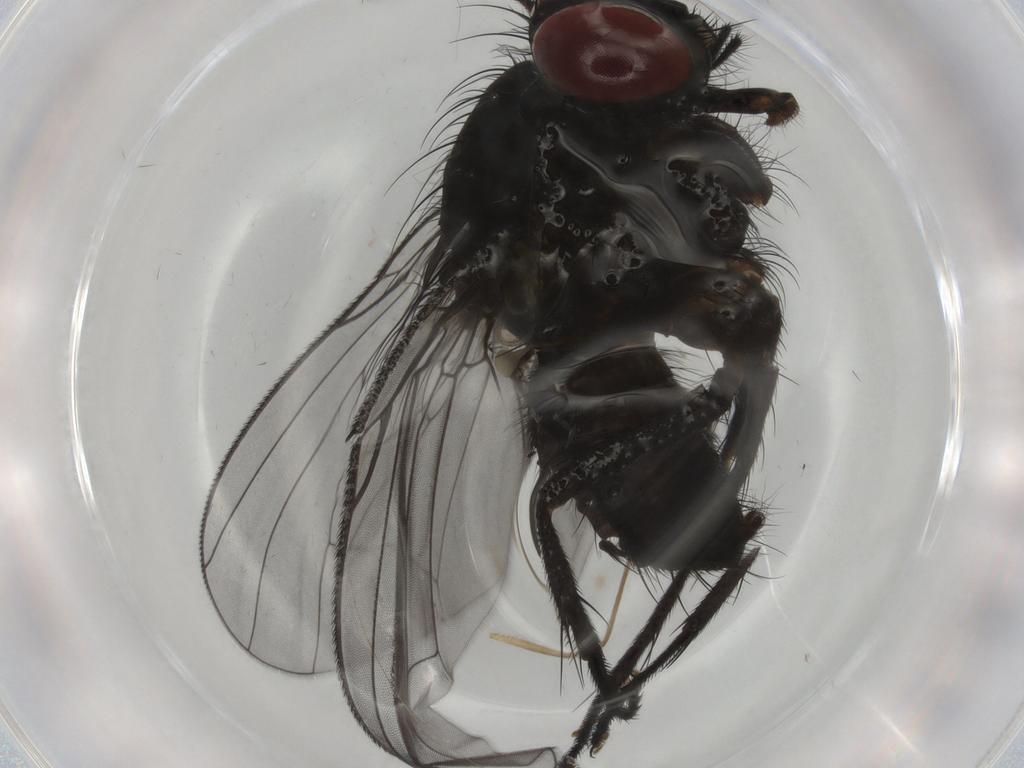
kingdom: Animalia
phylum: Arthropoda
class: Insecta
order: Diptera
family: Muscidae
